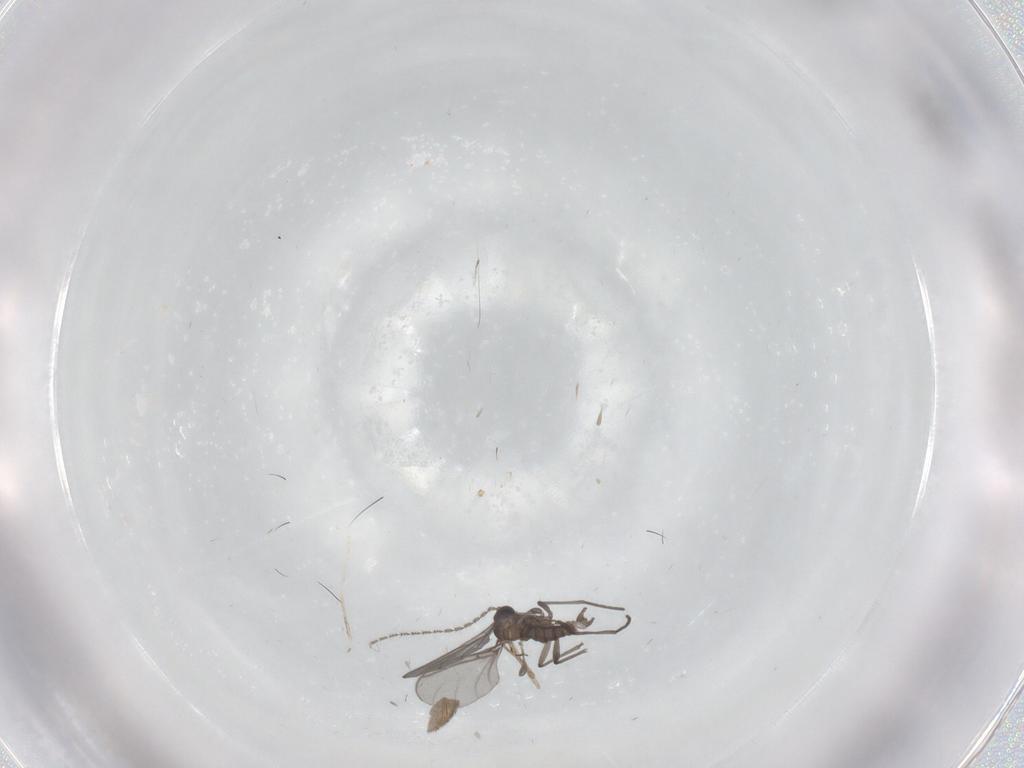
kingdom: Animalia
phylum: Arthropoda
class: Insecta
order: Diptera
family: Sciaridae
